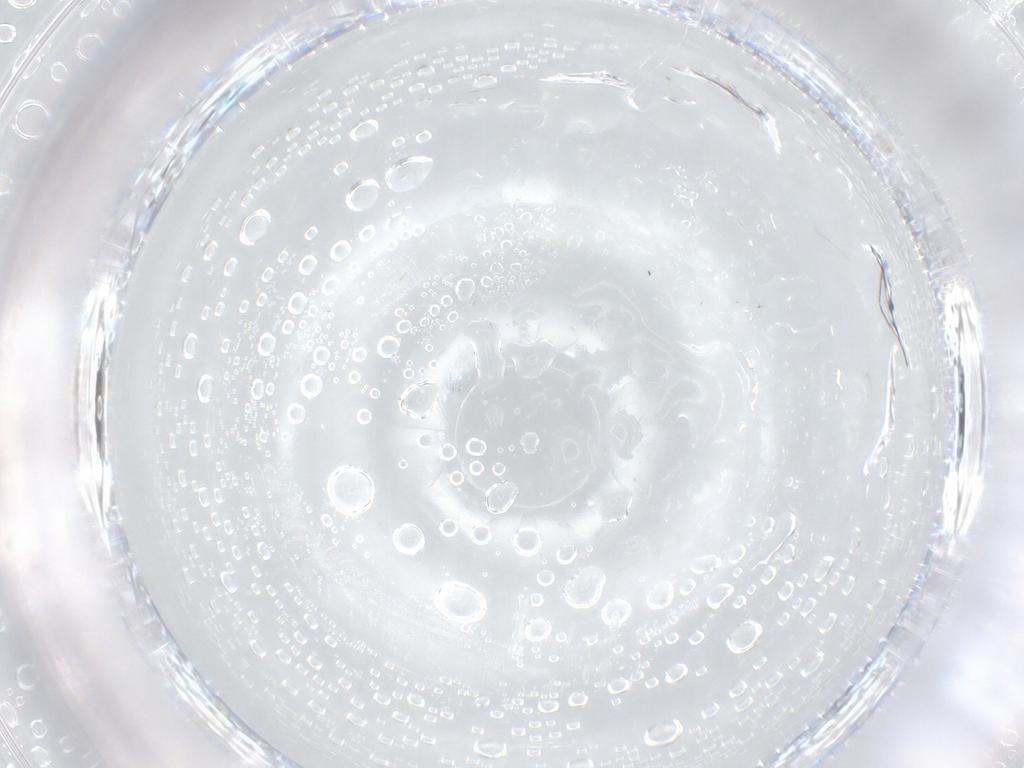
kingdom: Animalia
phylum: Arthropoda
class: Insecta
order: Hemiptera
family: Psyllidae
